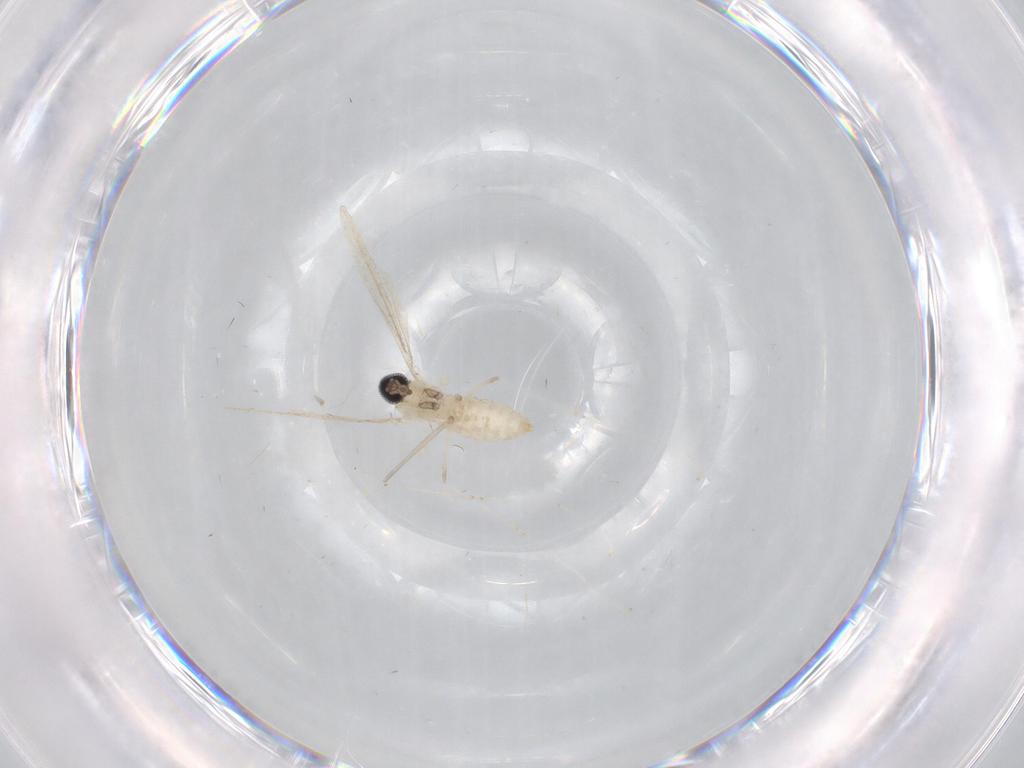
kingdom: Animalia
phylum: Arthropoda
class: Insecta
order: Diptera
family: Cecidomyiidae
